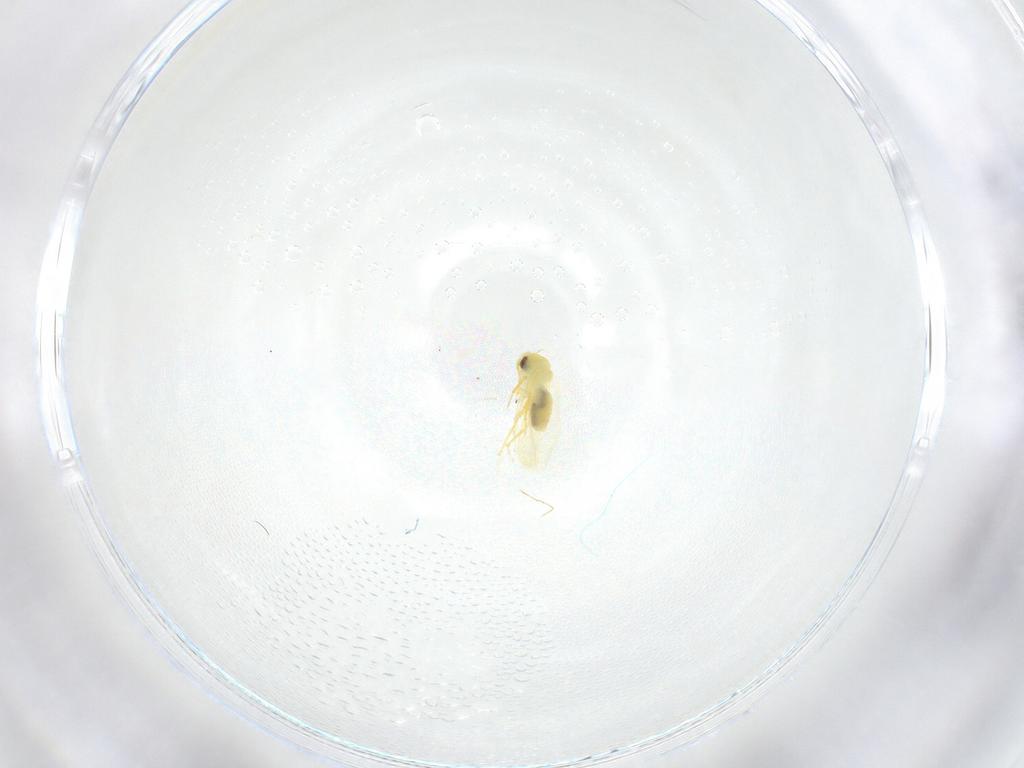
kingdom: Animalia
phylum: Arthropoda
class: Insecta
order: Hemiptera
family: Aleyrodidae
